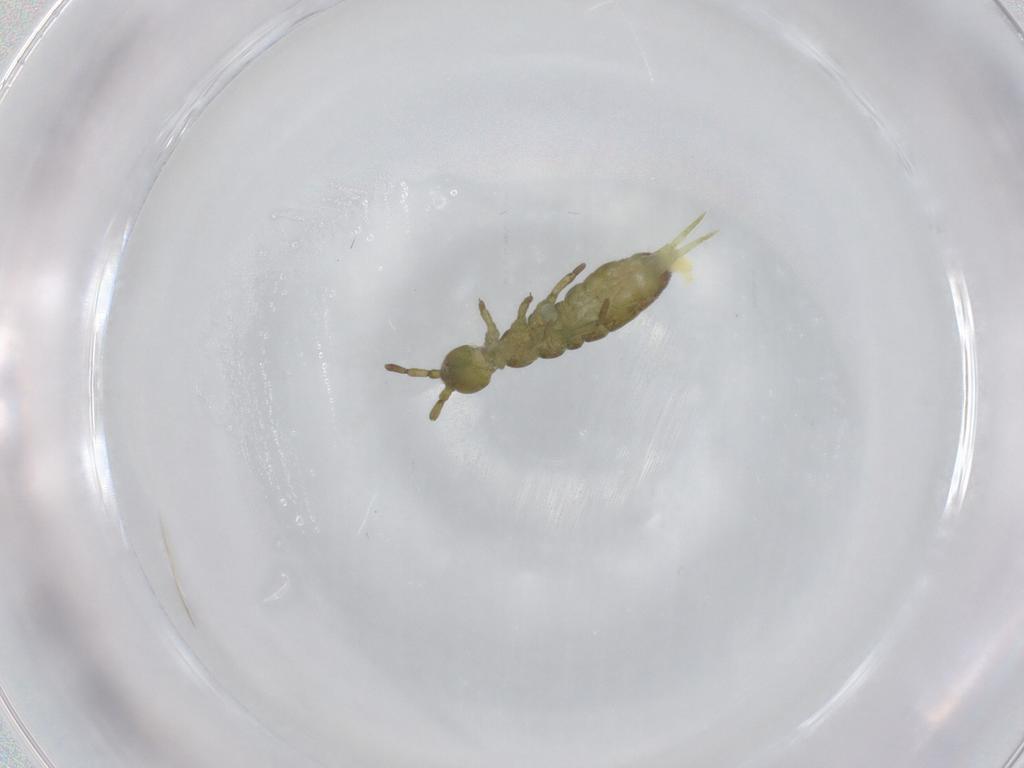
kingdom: Animalia
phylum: Arthropoda
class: Collembola
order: Entomobryomorpha
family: Isotomidae
